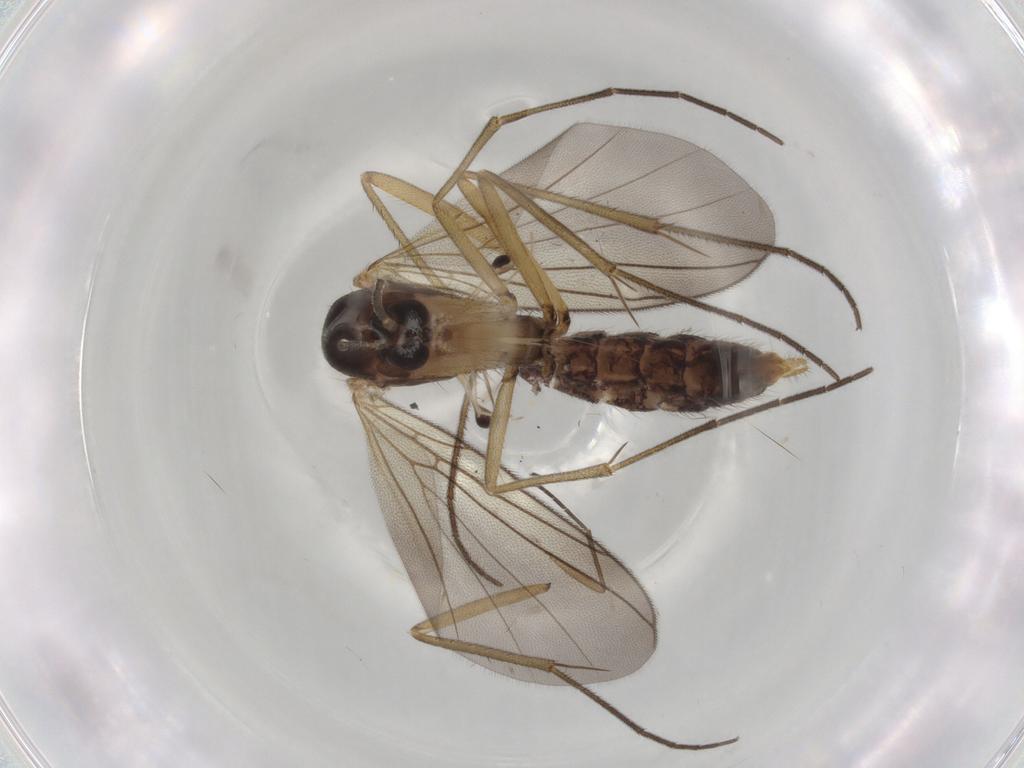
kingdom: Animalia
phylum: Arthropoda
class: Insecta
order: Diptera
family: Mycetophilidae
